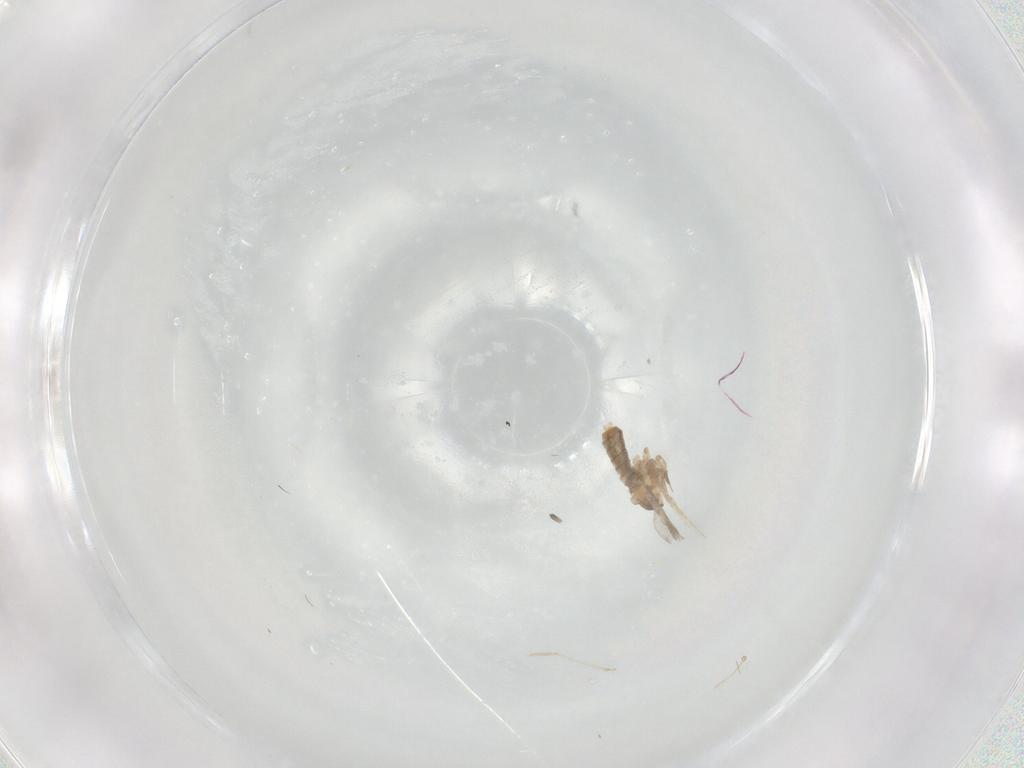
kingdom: Animalia
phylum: Arthropoda
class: Insecta
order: Diptera
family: Cecidomyiidae
